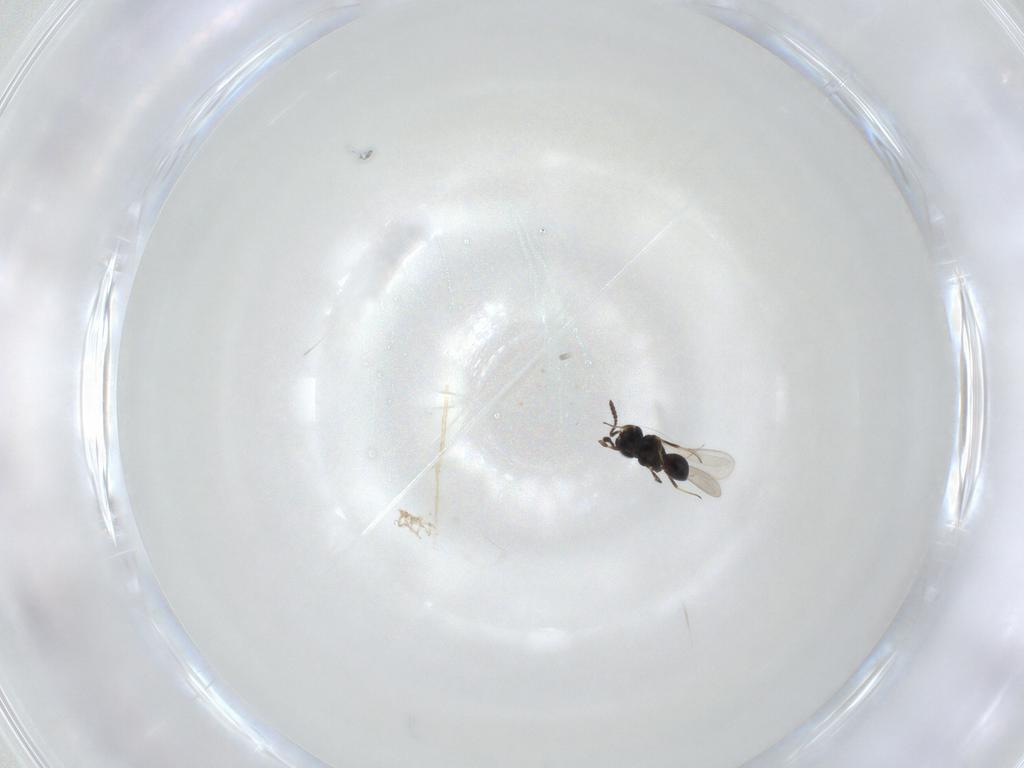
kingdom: Animalia
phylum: Arthropoda
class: Insecta
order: Hymenoptera
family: Scelionidae
